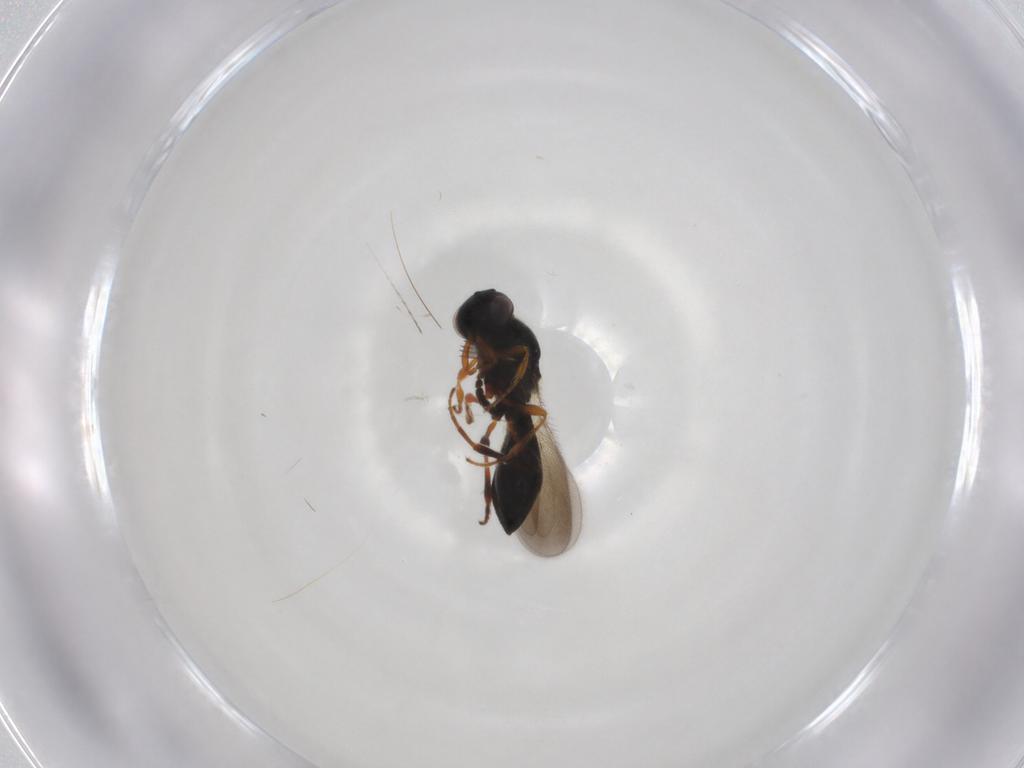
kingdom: Animalia
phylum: Arthropoda
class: Insecta
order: Hymenoptera
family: Platygastridae
